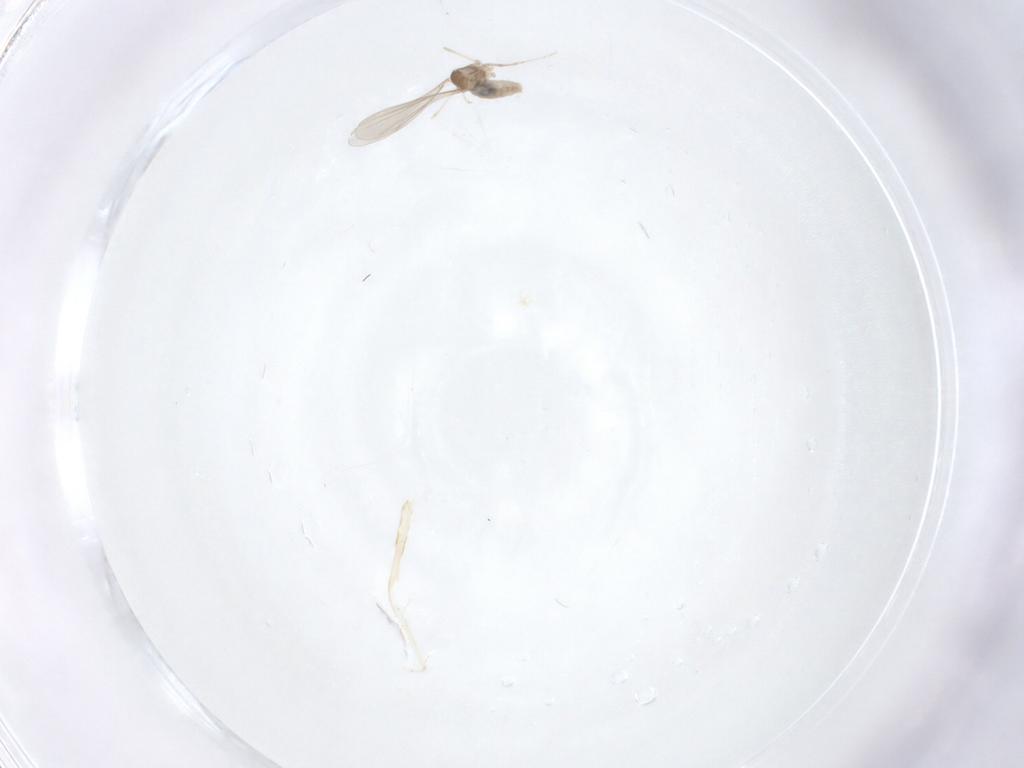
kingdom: Animalia
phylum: Arthropoda
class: Insecta
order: Diptera
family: Cecidomyiidae
